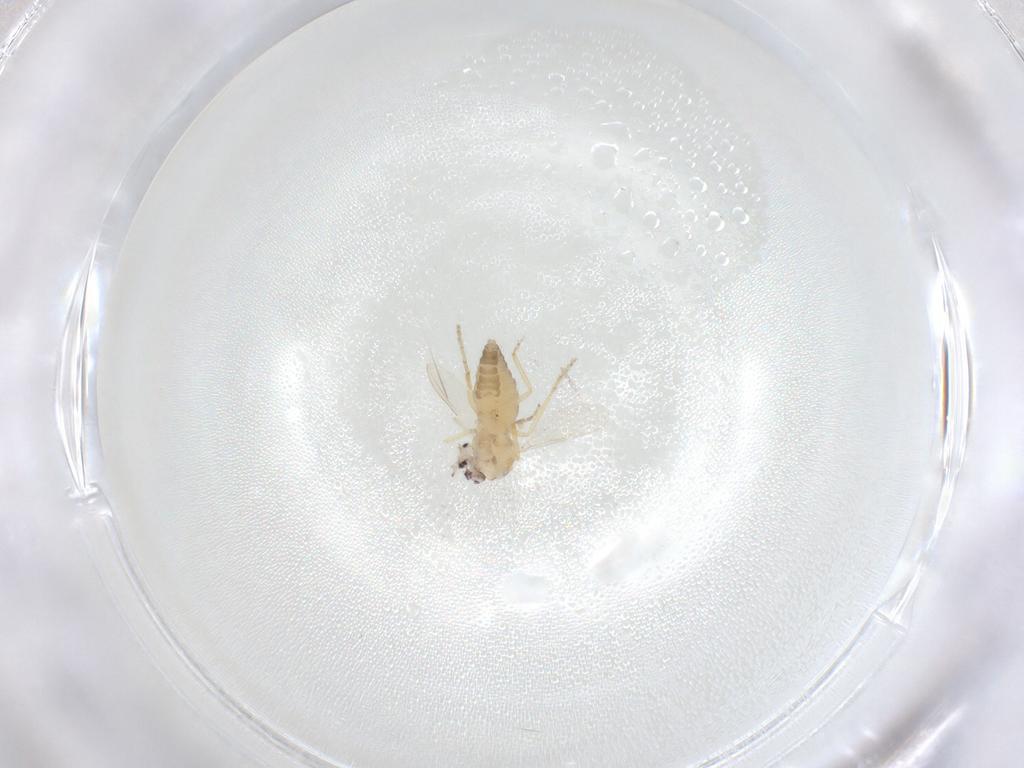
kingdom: Animalia
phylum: Arthropoda
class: Insecta
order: Diptera
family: Ceratopogonidae
